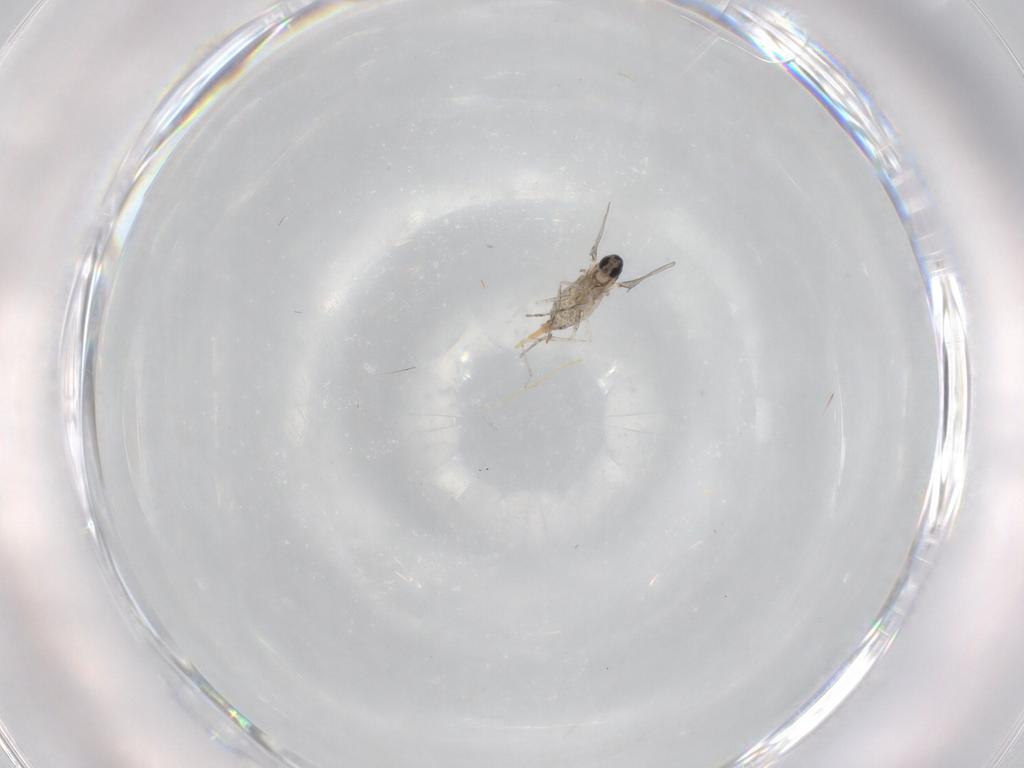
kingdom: Animalia
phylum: Arthropoda
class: Insecta
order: Diptera
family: Cecidomyiidae
